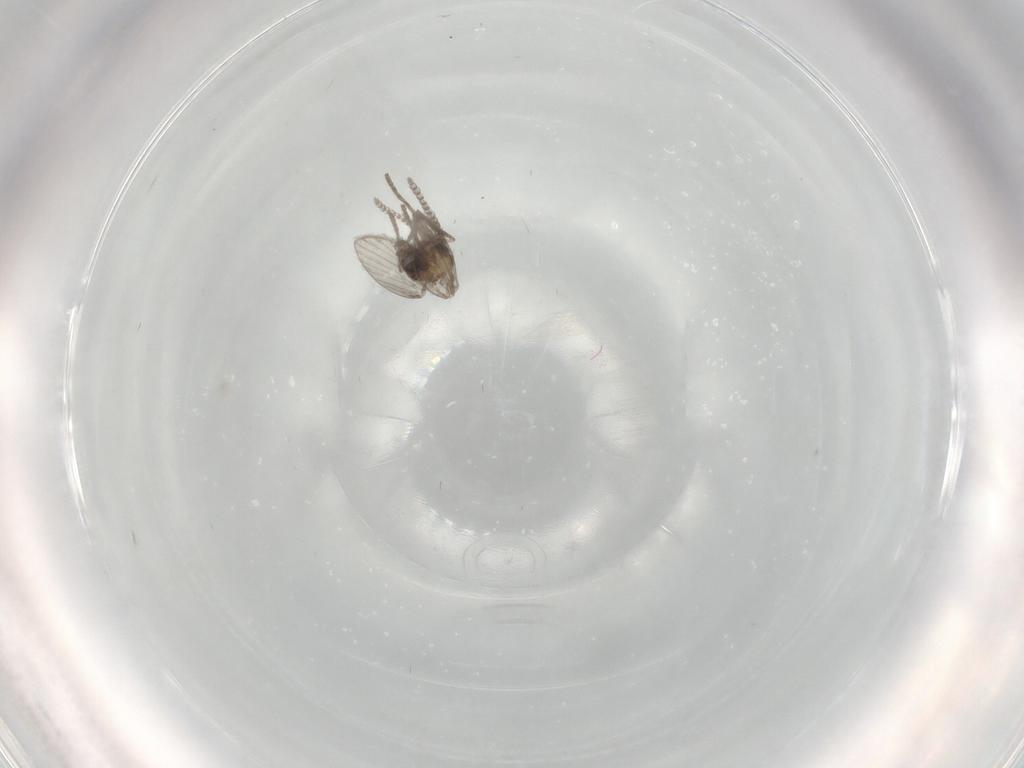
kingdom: Animalia
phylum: Arthropoda
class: Insecta
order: Diptera
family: Psychodidae
